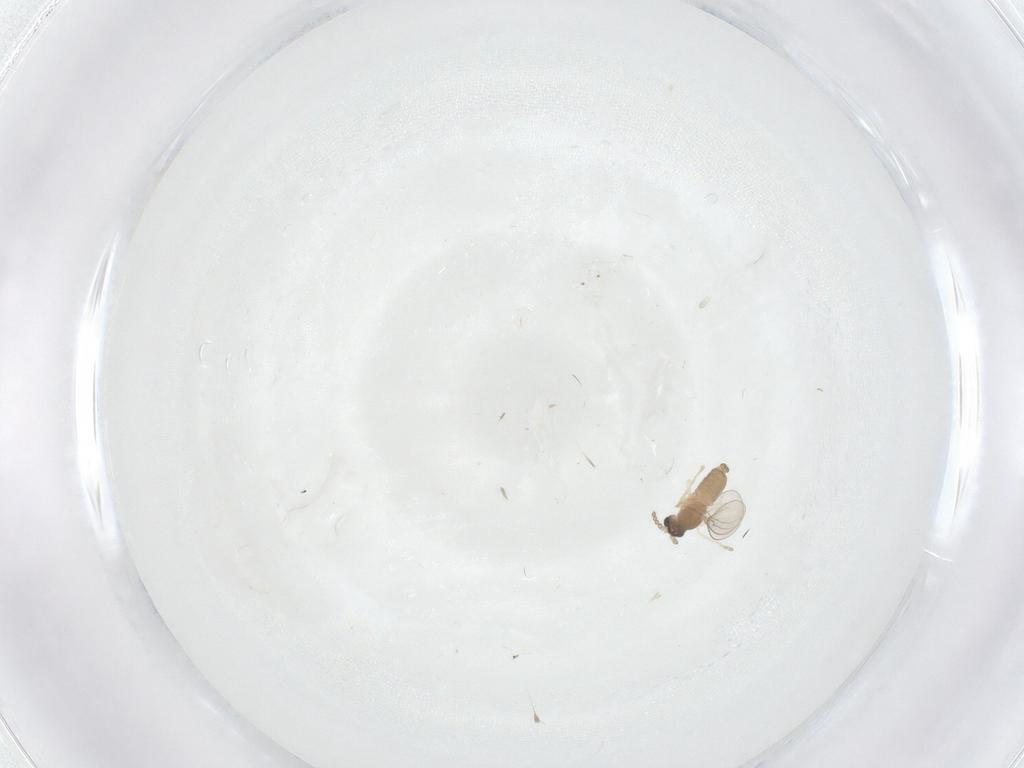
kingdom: Animalia
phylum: Arthropoda
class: Insecta
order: Diptera
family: Cecidomyiidae
